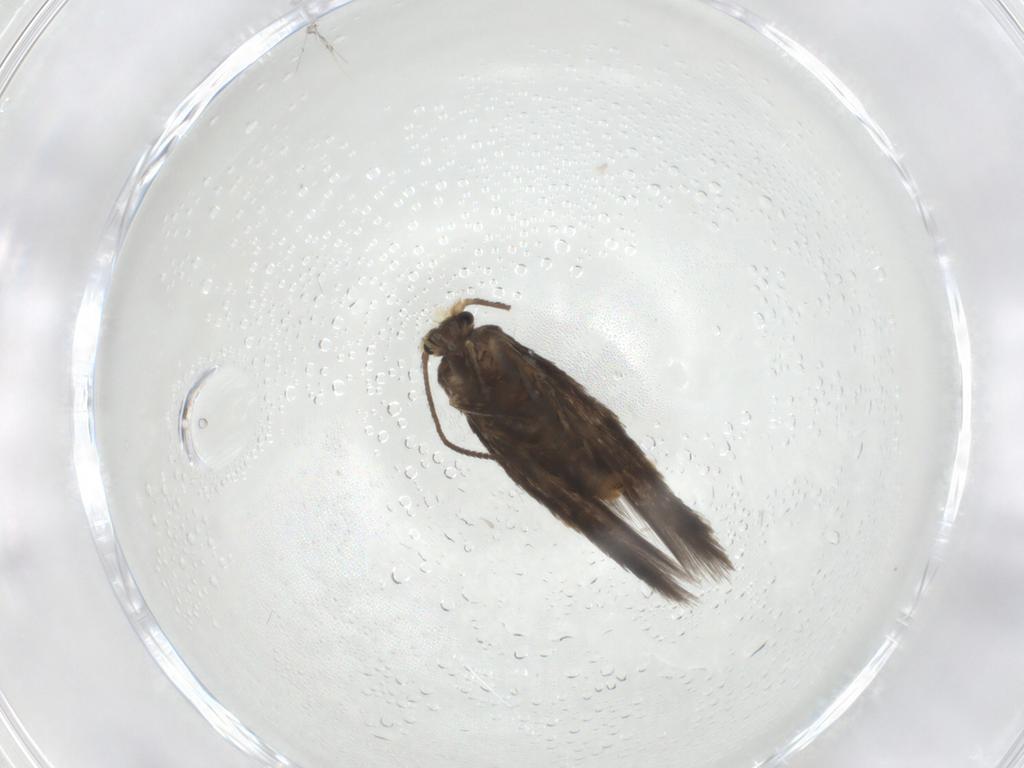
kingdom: Animalia
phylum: Arthropoda
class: Insecta
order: Lepidoptera
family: Nepticulidae
